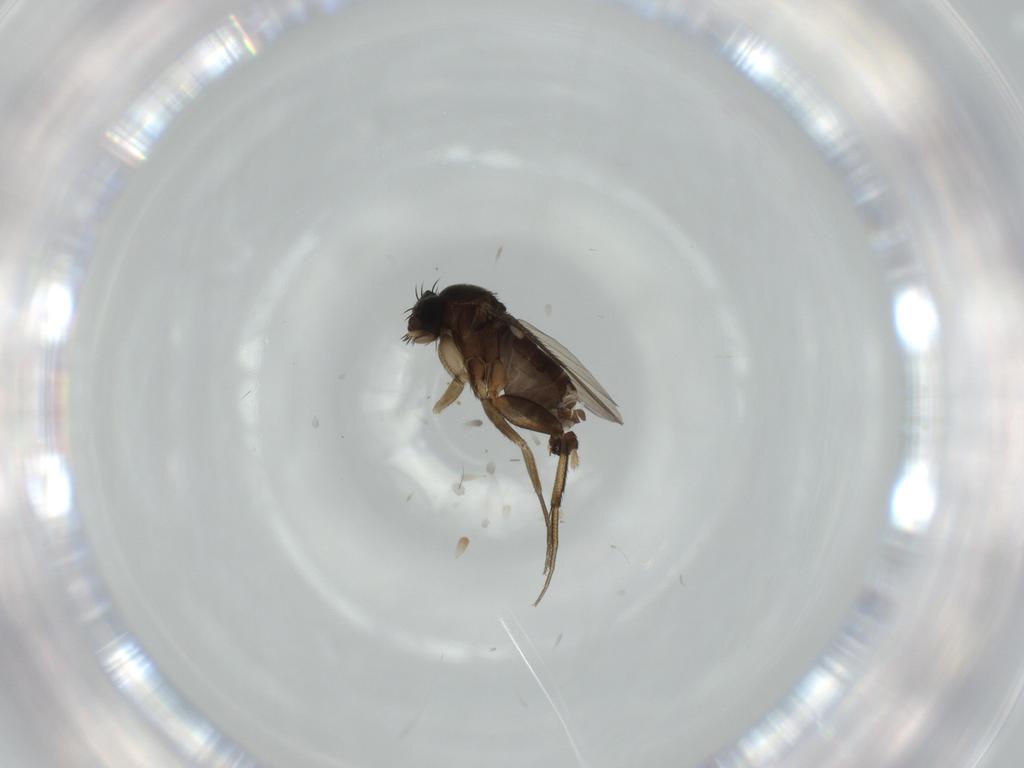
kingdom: Animalia
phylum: Arthropoda
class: Insecta
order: Diptera
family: Phoridae
